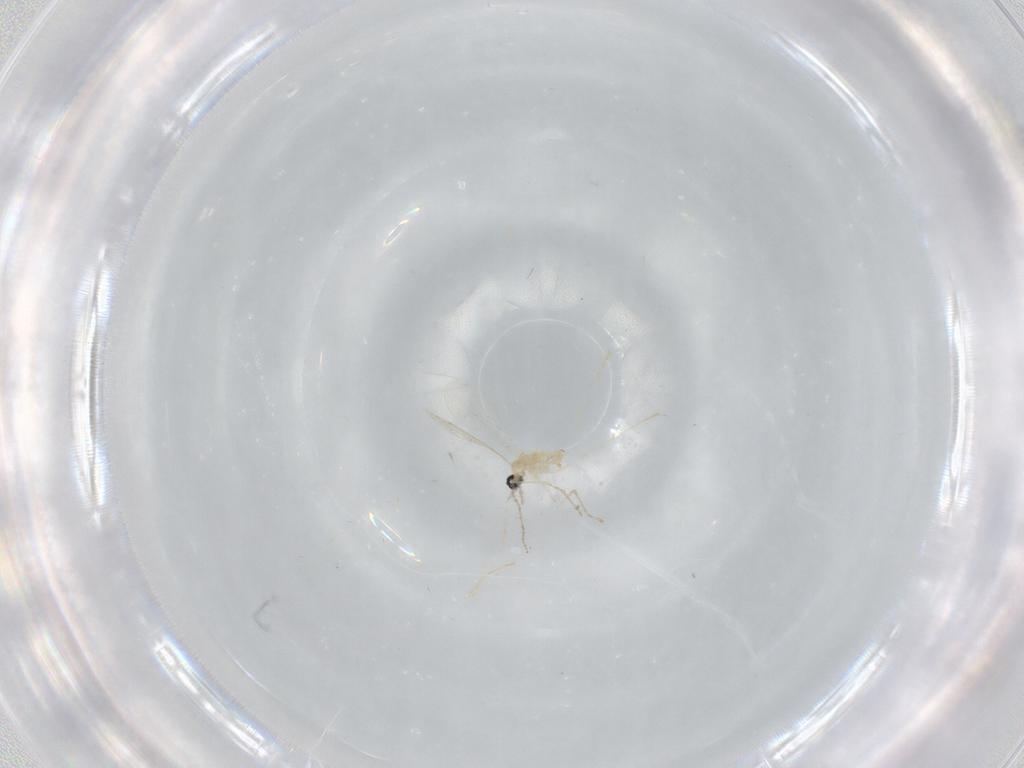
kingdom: Animalia
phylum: Arthropoda
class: Insecta
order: Diptera
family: Cecidomyiidae
